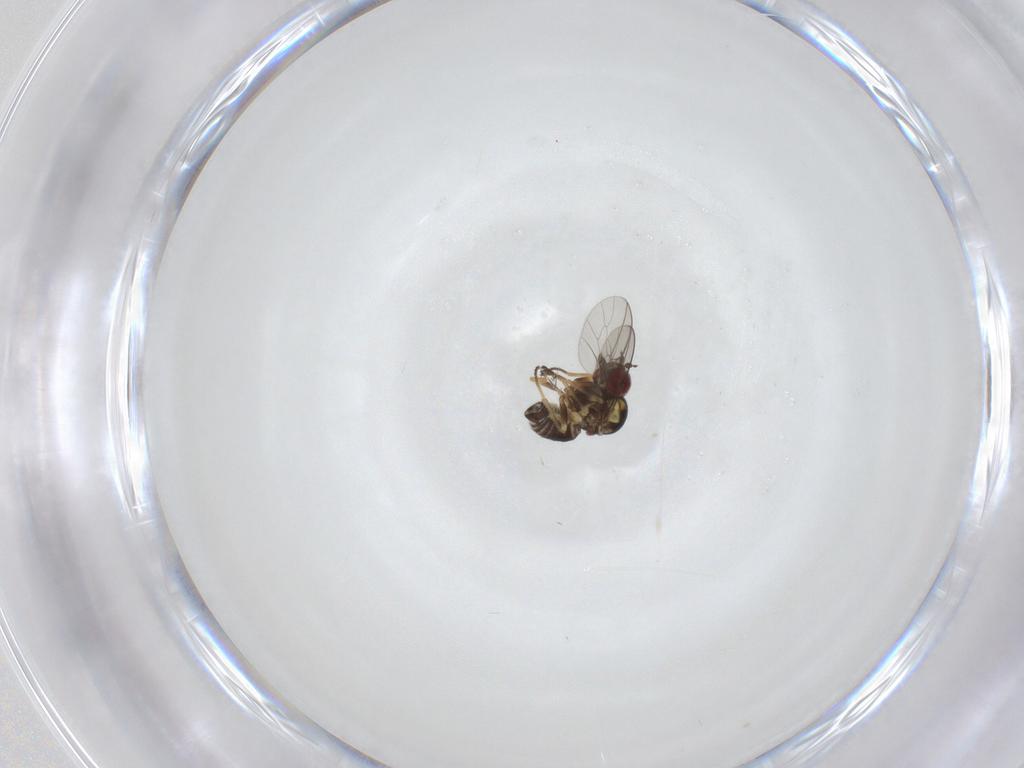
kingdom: Animalia
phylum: Arthropoda
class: Insecta
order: Diptera
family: Bombyliidae
